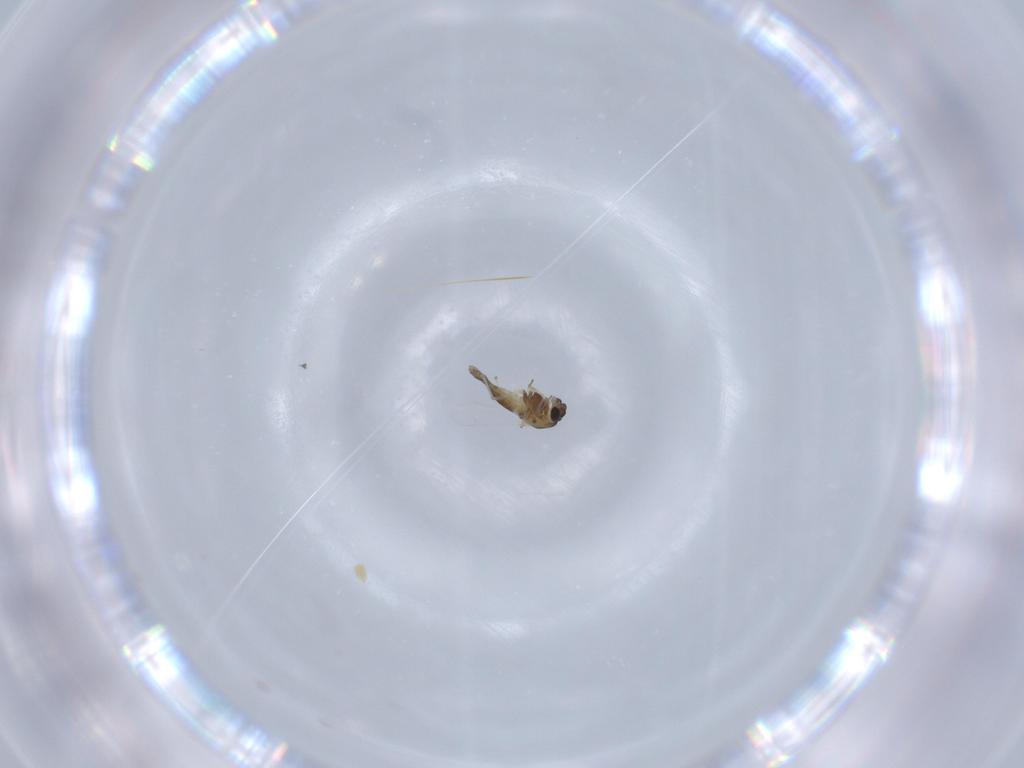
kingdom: Animalia
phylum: Arthropoda
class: Insecta
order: Diptera
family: Chironomidae
